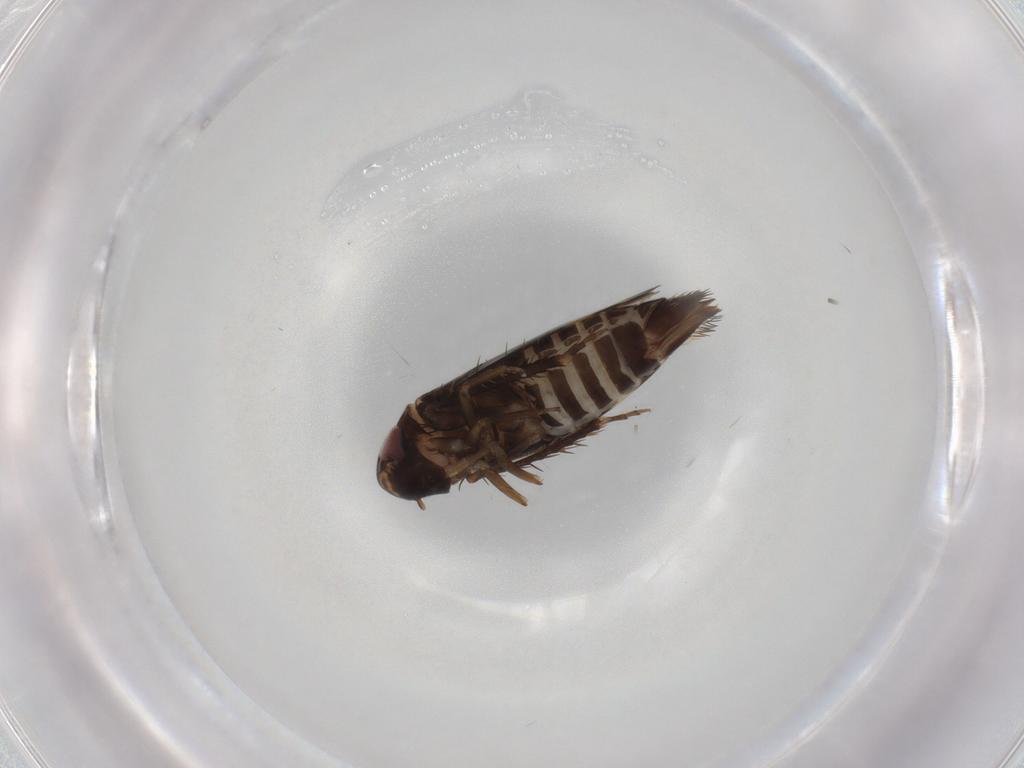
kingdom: Animalia
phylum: Arthropoda
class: Insecta
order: Hemiptera
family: Cicadellidae
